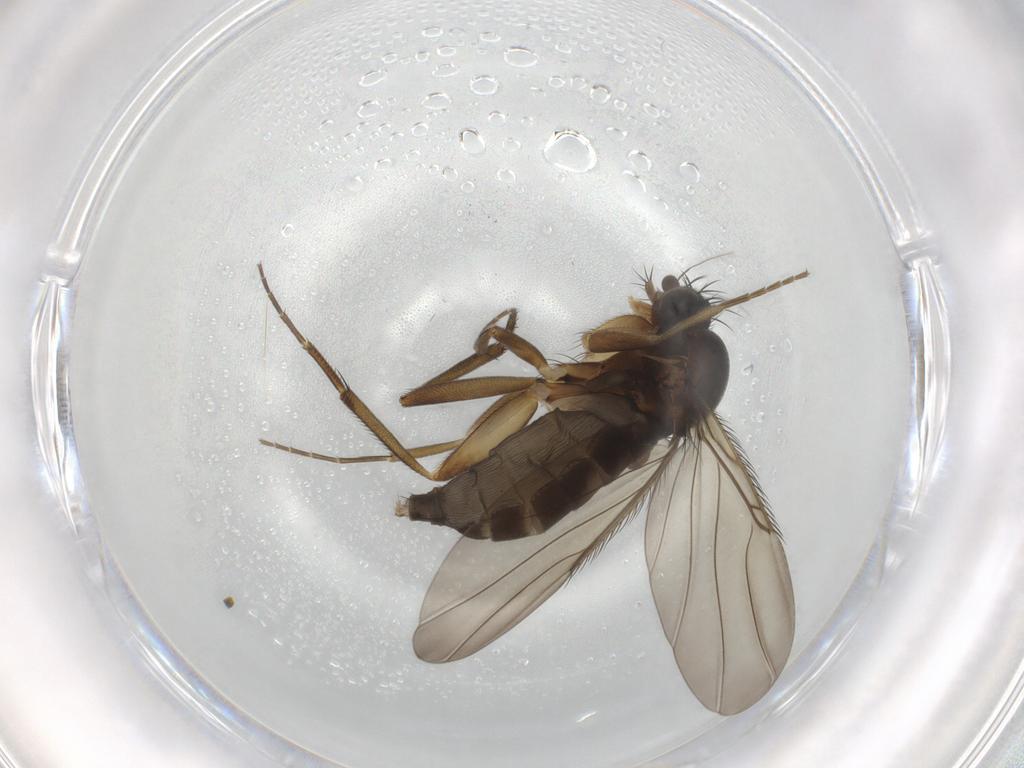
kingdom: Animalia
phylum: Arthropoda
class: Insecta
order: Diptera
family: Phoridae
